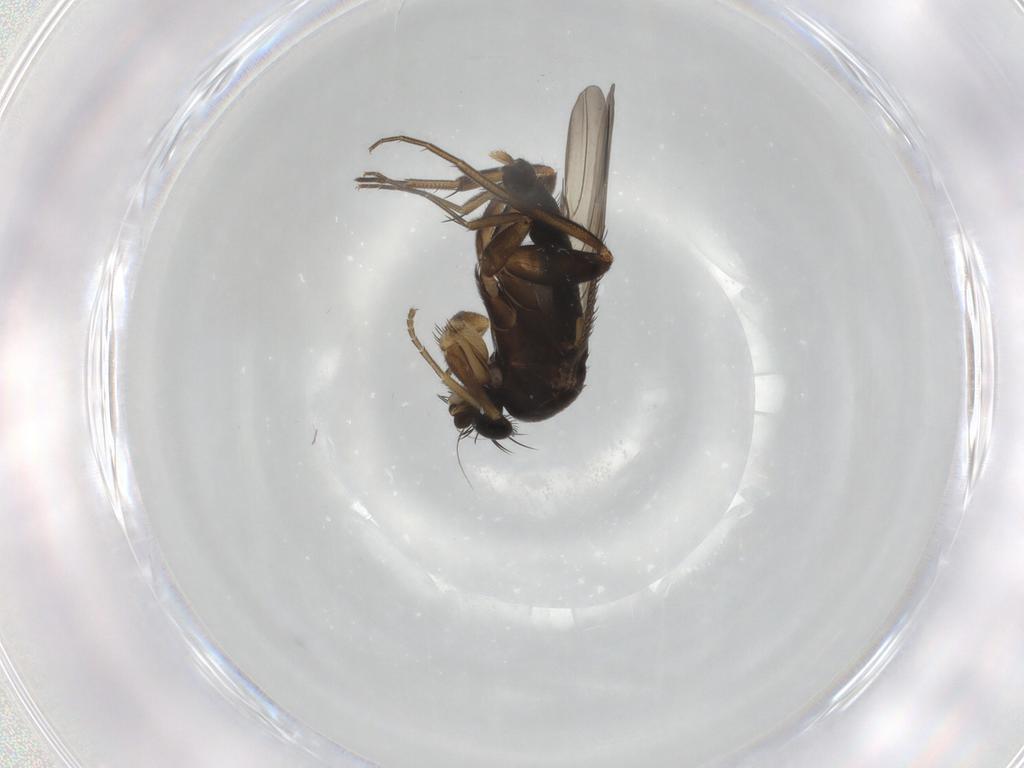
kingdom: Animalia
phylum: Arthropoda
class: Insecta
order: Diptera
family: Phoridae
